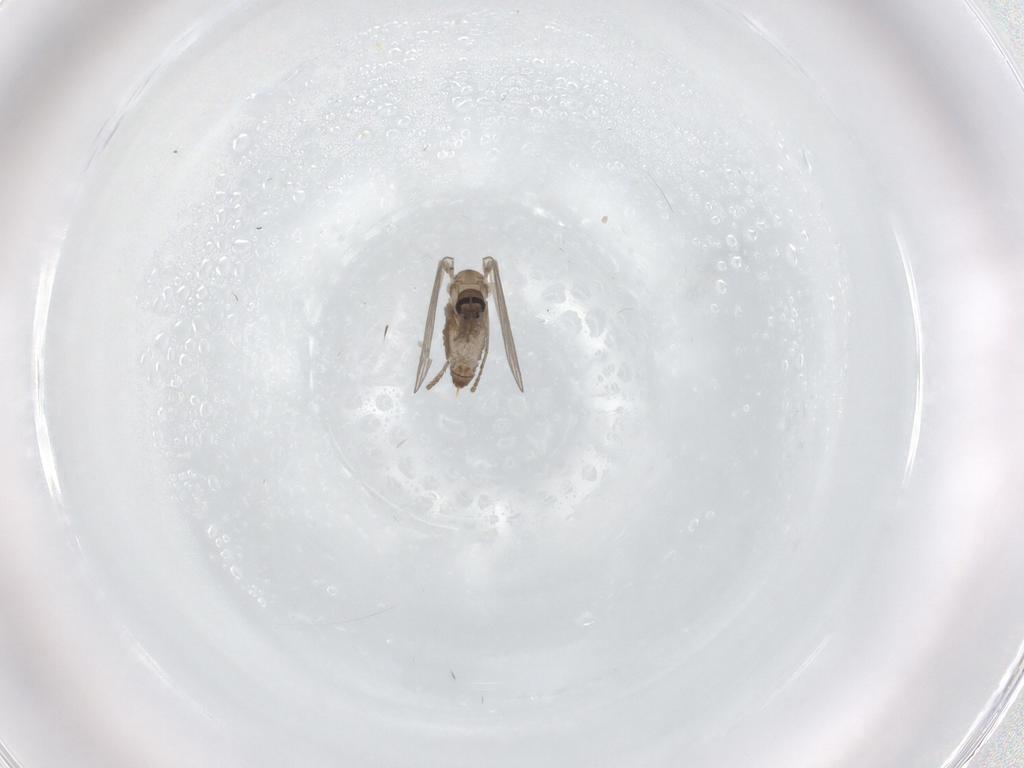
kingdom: Animalia
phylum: Arthropoda
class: Insecta
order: Diptera
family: Psychodidae
